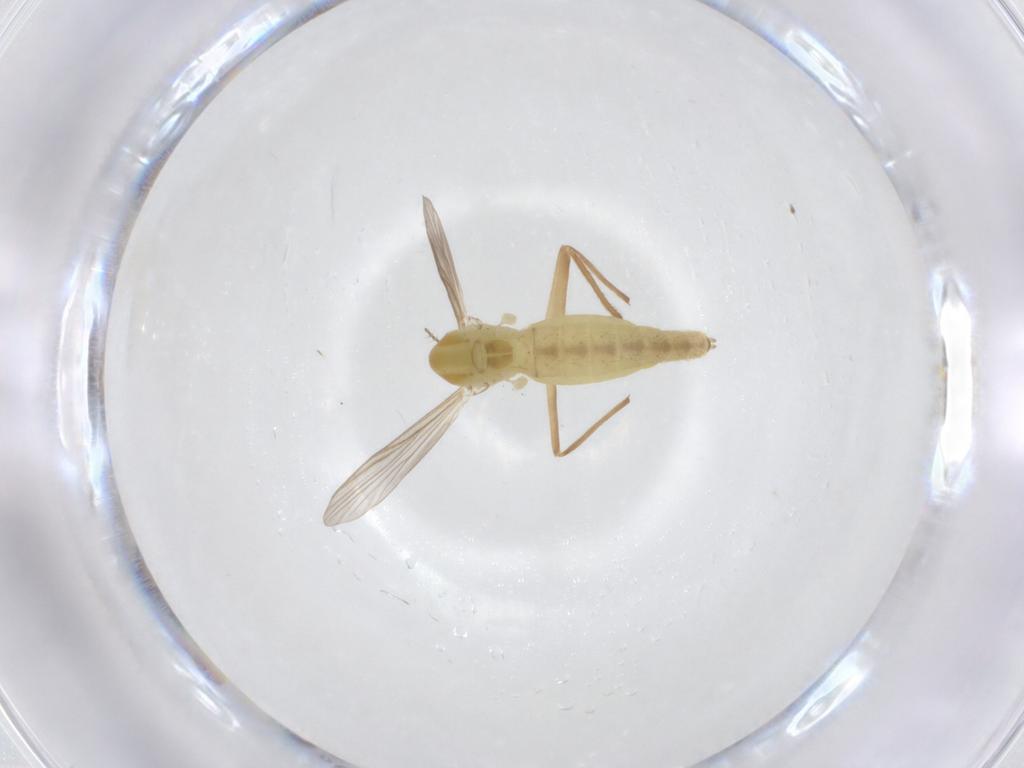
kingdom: Animalia
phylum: Arthropoda
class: Insecta
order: Diptera
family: Chironomidae
